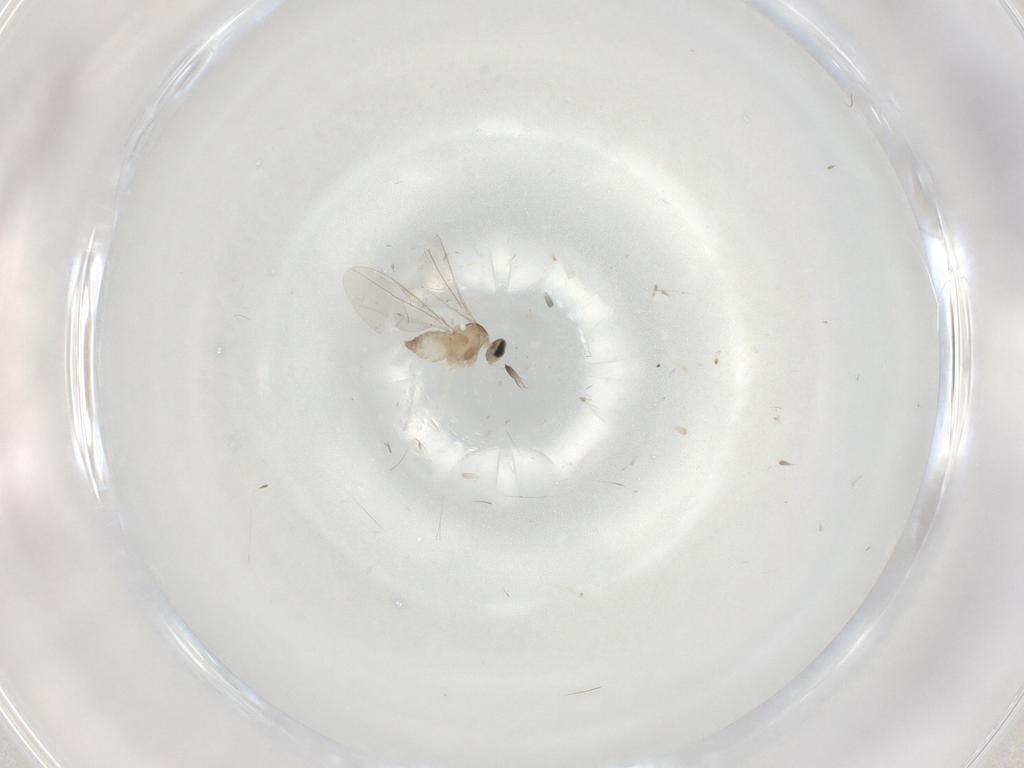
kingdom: Animalia
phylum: Arthropoda
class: Insecta
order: Diptera
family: Cecidomyiidae
